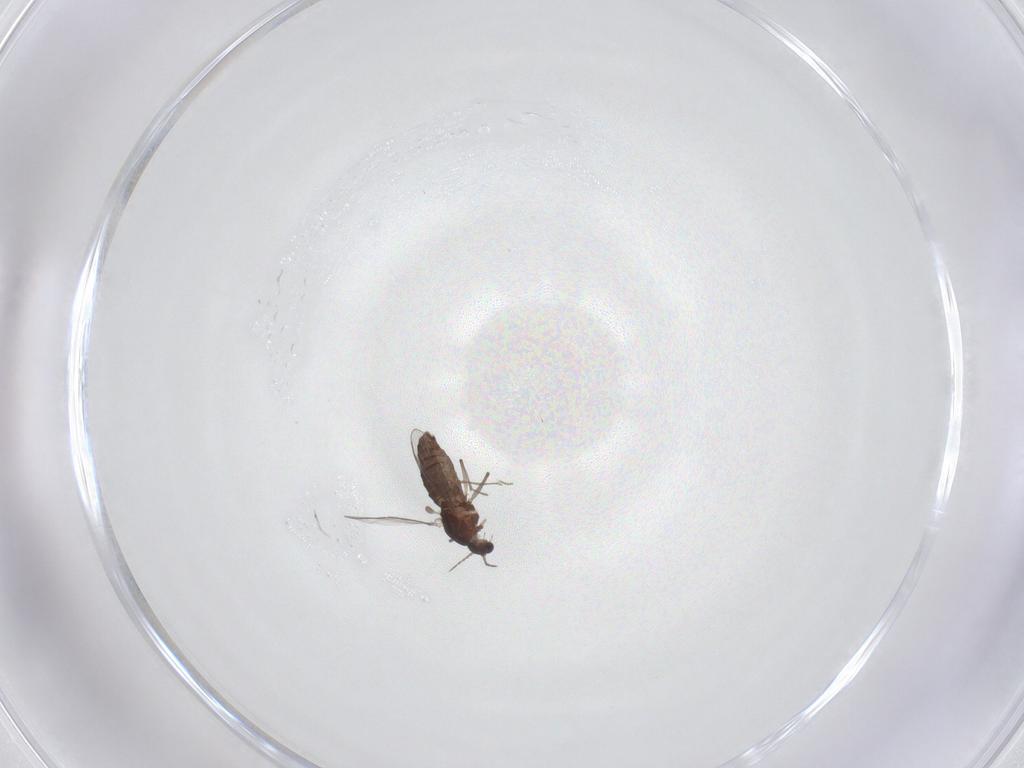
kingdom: Animalia
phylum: Arthropoda
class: Insecta
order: Diptera
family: Chironomidae
